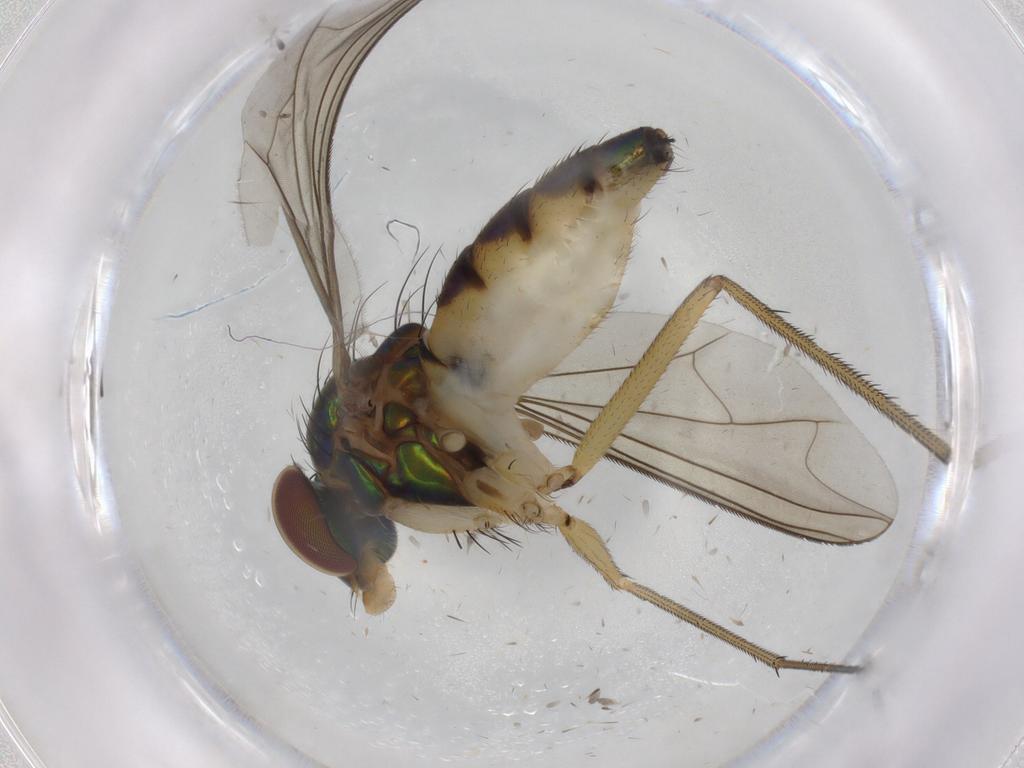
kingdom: Animalia
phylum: Arthropoda
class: Insecta
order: Diptera
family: Dolichopodidae
